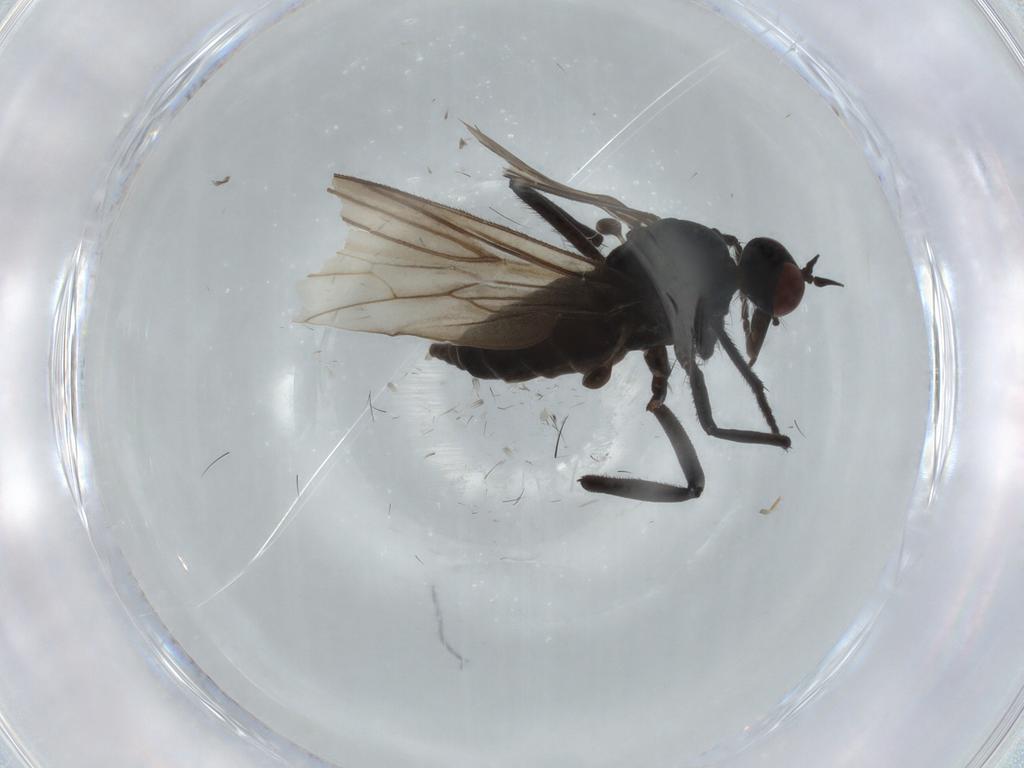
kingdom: Animalia
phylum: Arthropoda
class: Insecta
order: Diptera
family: Empididae
